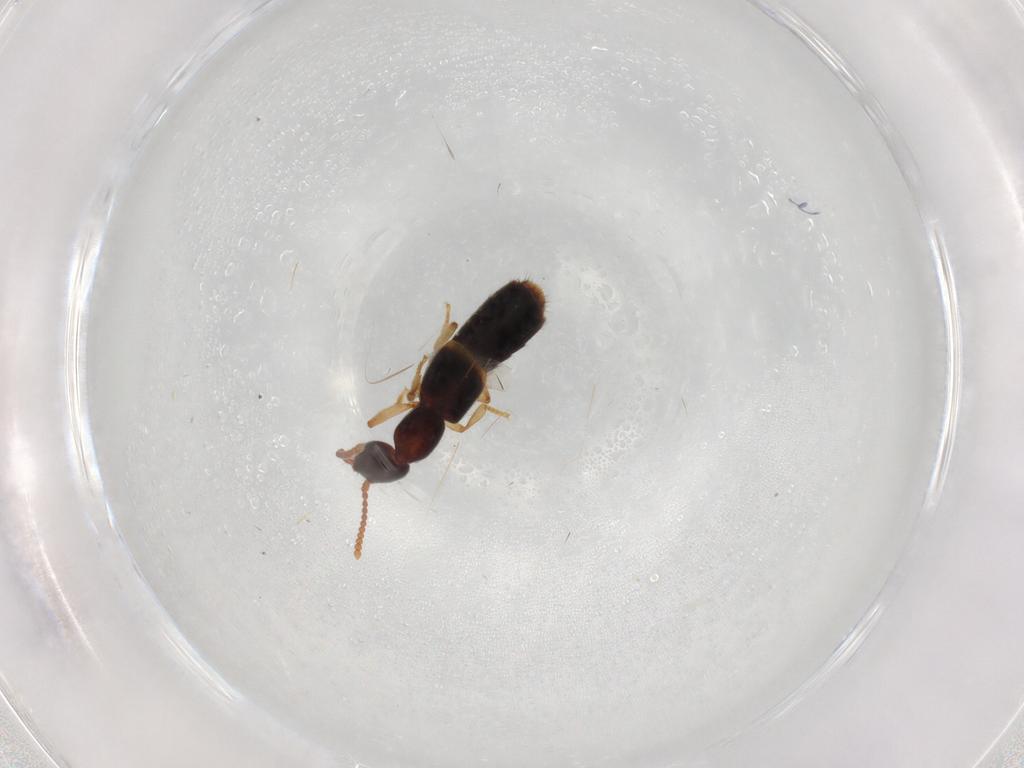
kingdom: Animalia
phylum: Arthropoda
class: Insecta
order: Coleoptera
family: Staphylinidae
